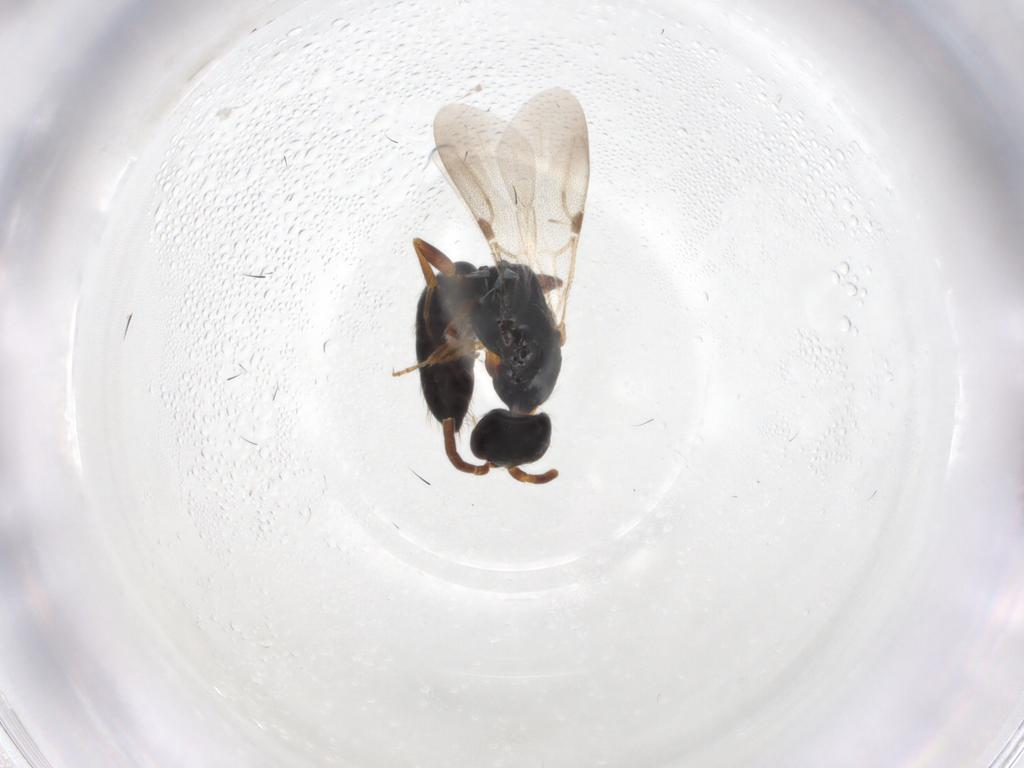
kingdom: Animalia
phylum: Arthropoda
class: Insecta
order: Hymenoptera
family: Bethylidae
